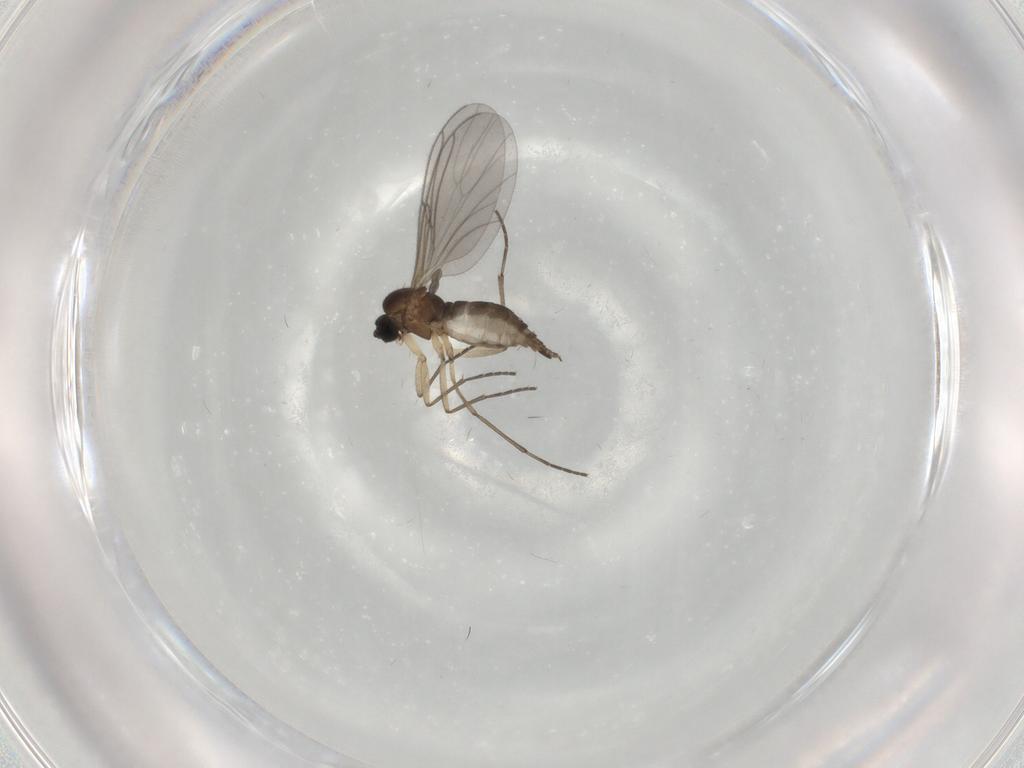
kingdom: Animalia
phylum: Arthropoda
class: Insecta
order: Diptera
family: Sciaridae
